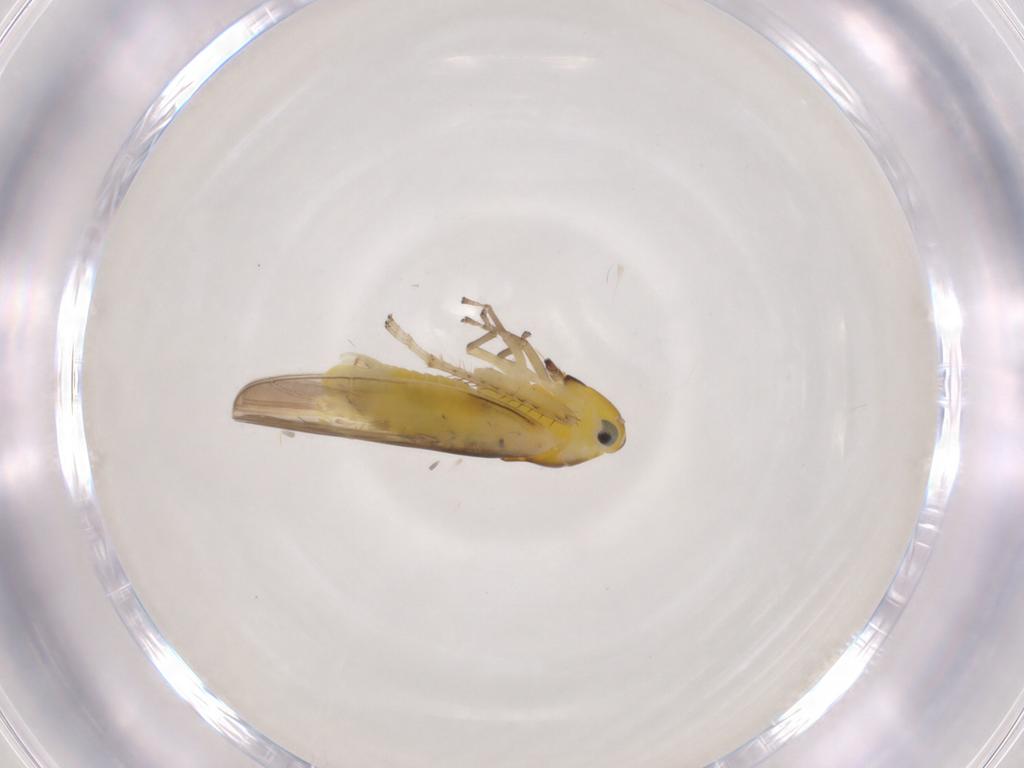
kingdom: Animalia
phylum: Arthropoda
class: Insecta
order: Hemiptera
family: Cicadellidae
